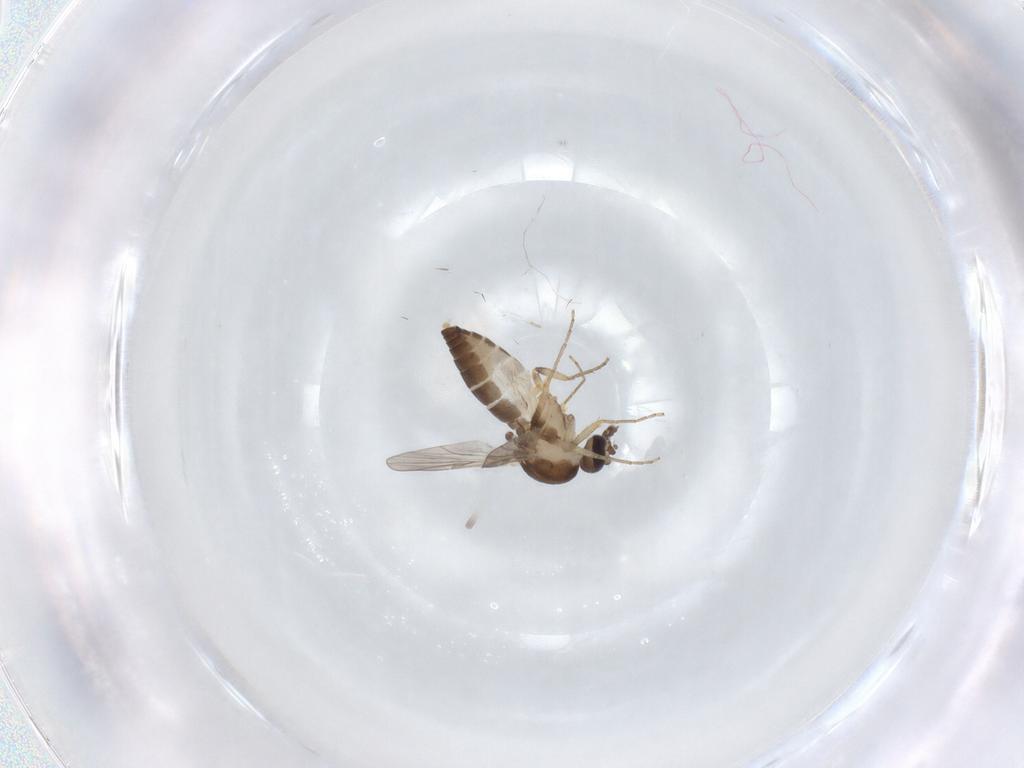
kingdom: Animalia
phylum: Arthropoda
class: Insecta
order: Diptera
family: Ceratopogonidae
